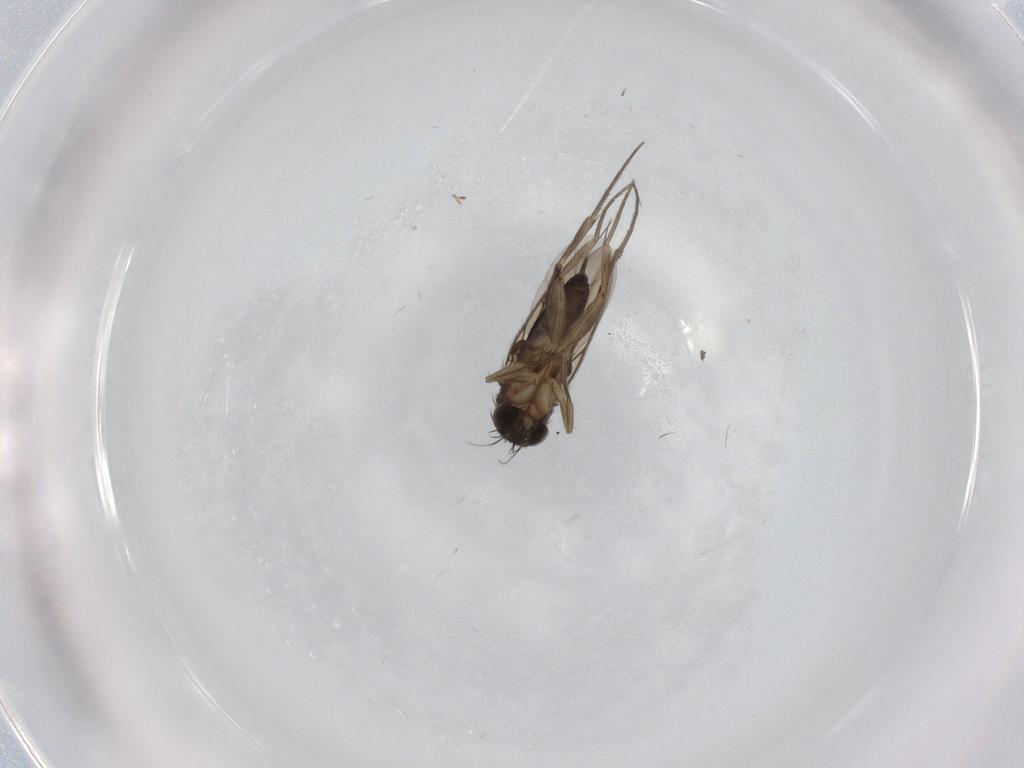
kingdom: Animalia
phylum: Arthropoda
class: Insecta
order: Diptera
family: Phoridae
